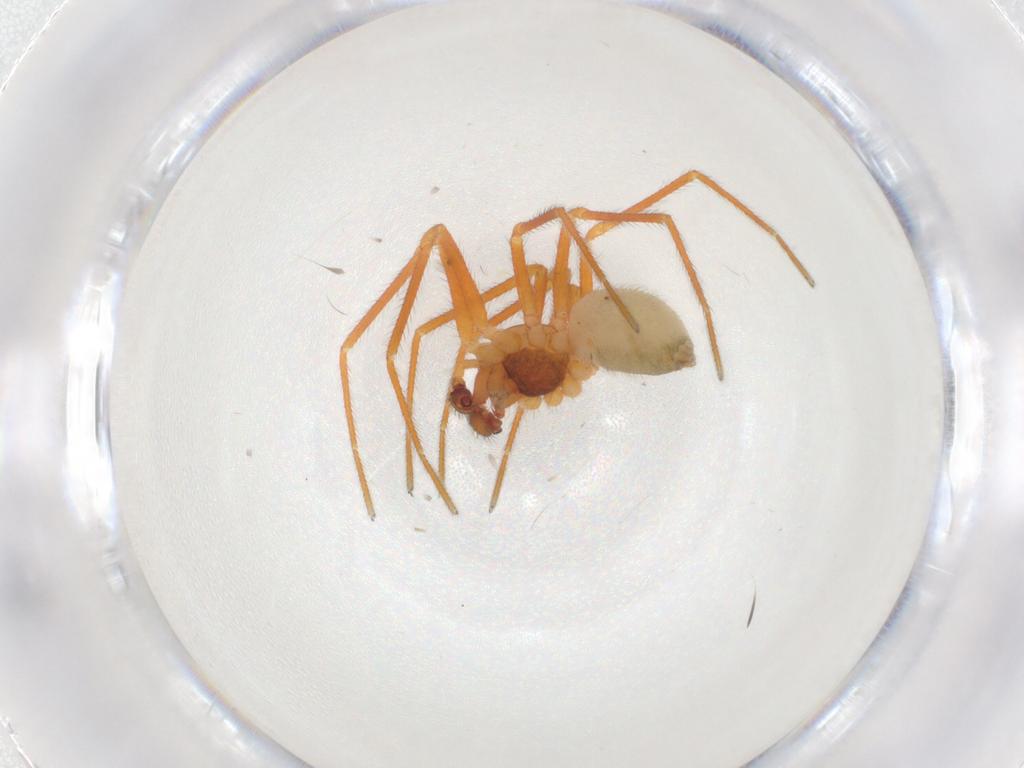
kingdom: Animalia
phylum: Arthropoda
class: Arachnida
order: Araneae
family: Linyphiidae
